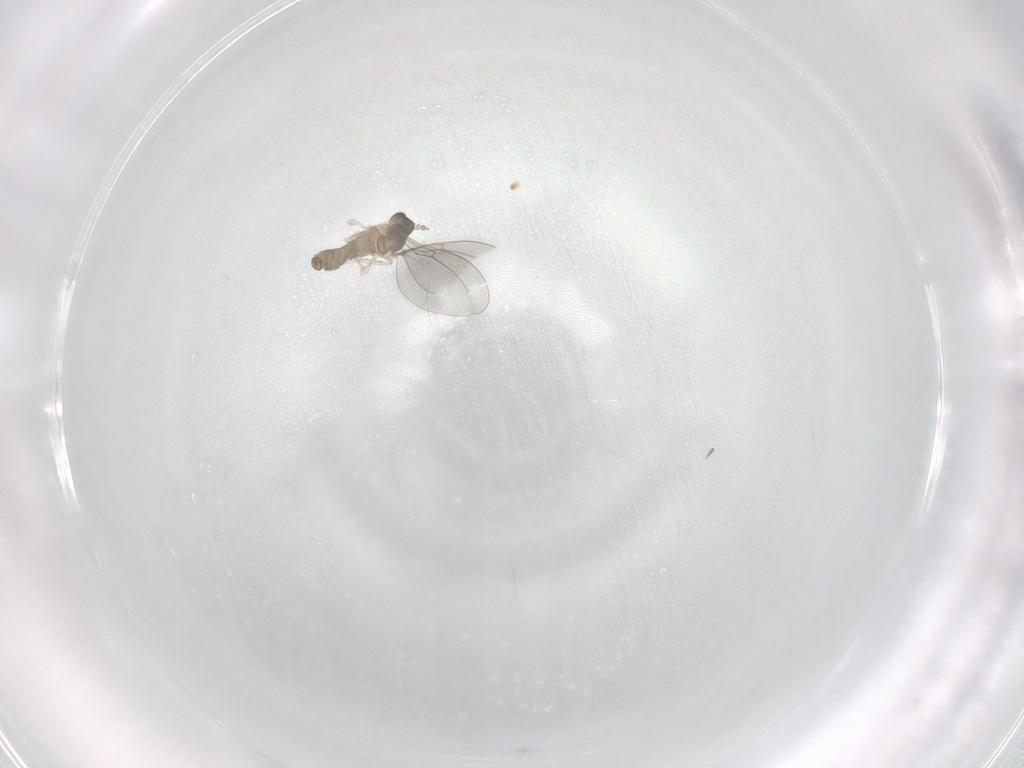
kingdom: Animalia
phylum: Arthropoda
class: Insecta
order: Diptera
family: Cecidomyiidae
